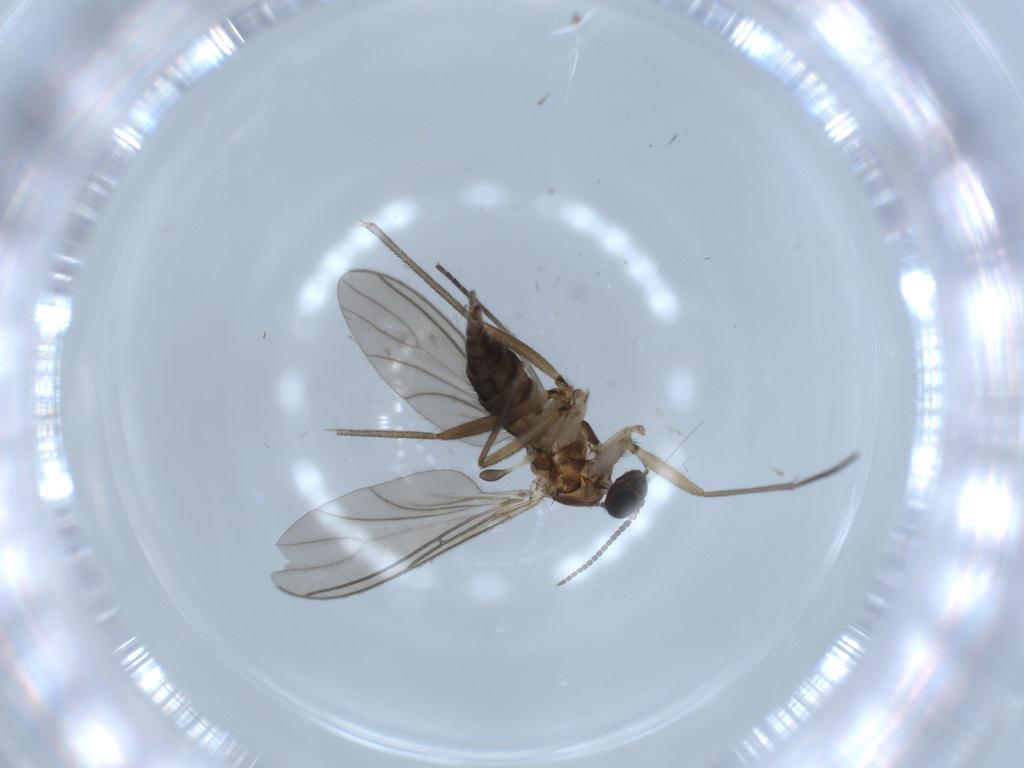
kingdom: Animalia
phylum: Arthropoda
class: Insecta
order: Diptera
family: Sciaridae
